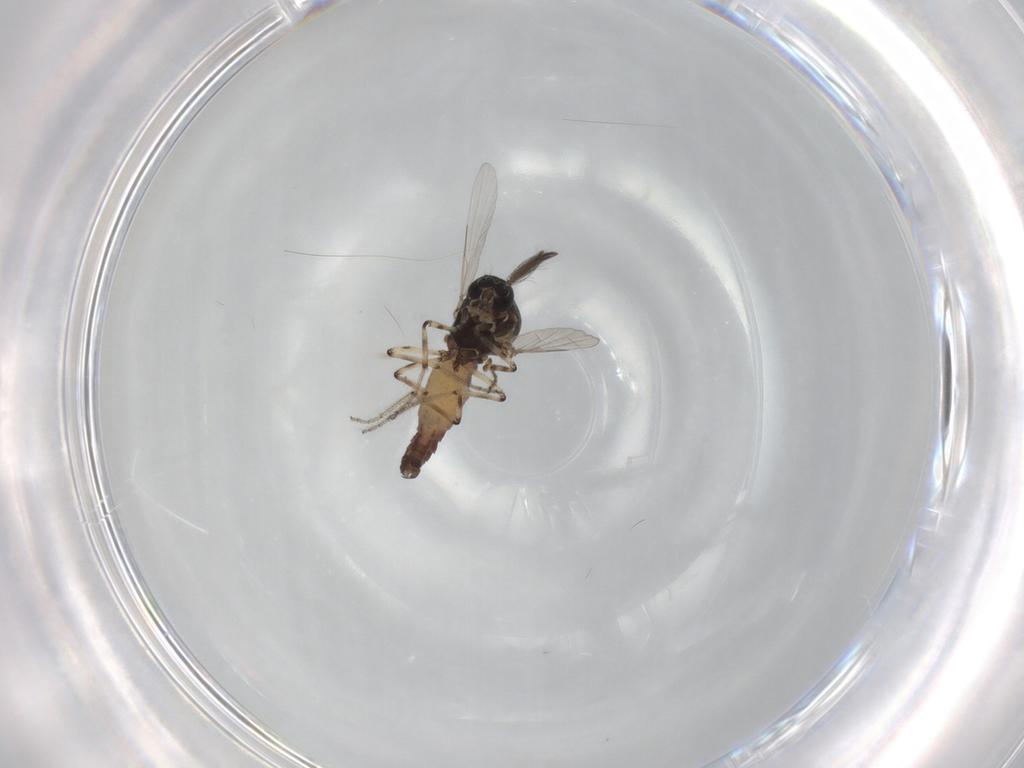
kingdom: Animalia
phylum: Arthropoda
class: Insecta
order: Diptera
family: Ceratopogonidae
